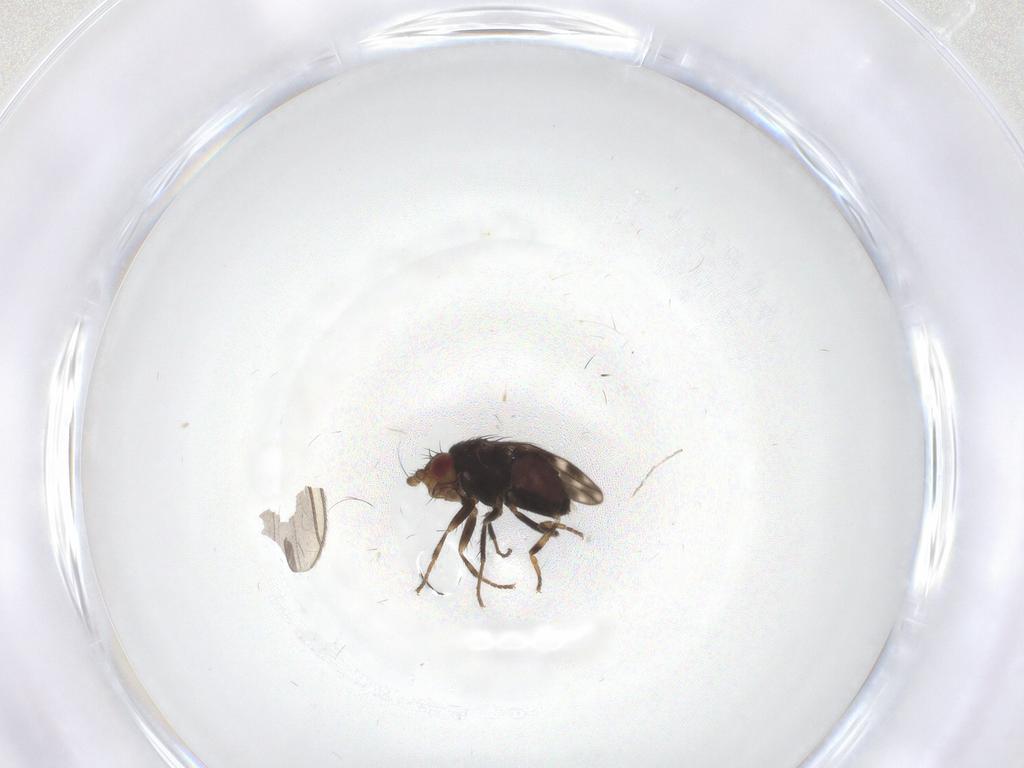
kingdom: Animalia
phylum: Arthropoda
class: Insecta
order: Diptera
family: Sphaeroceridae
